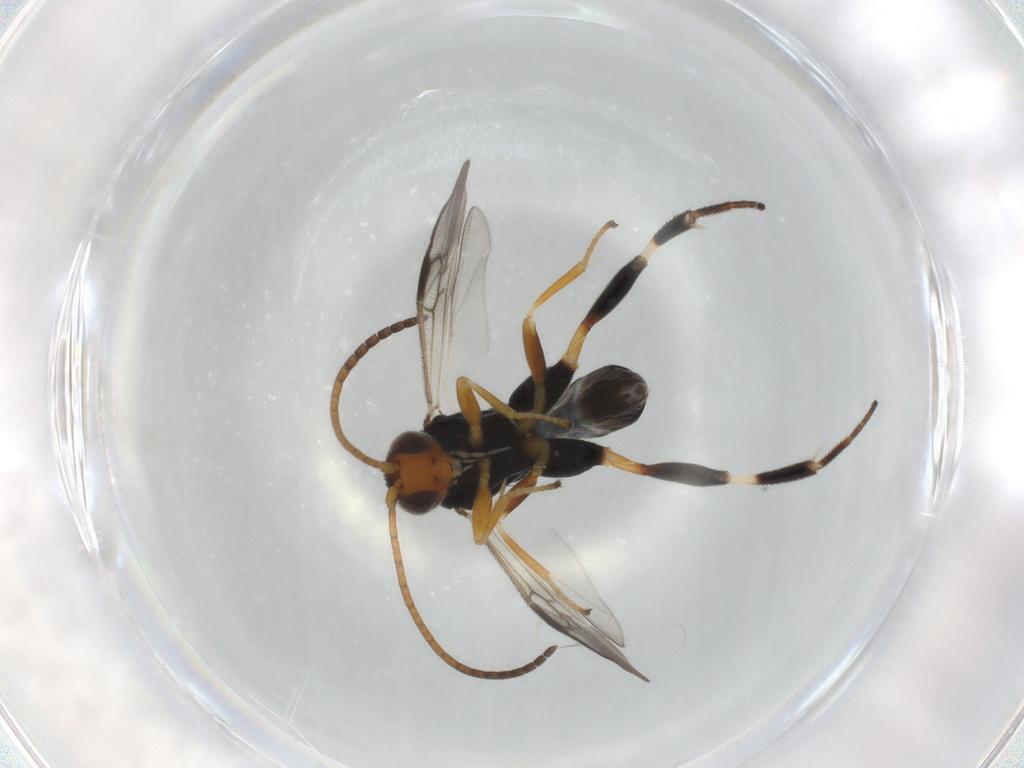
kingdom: Animalia
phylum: Arthropoda
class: Insecta
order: Hymenoptera
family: Braconidae
